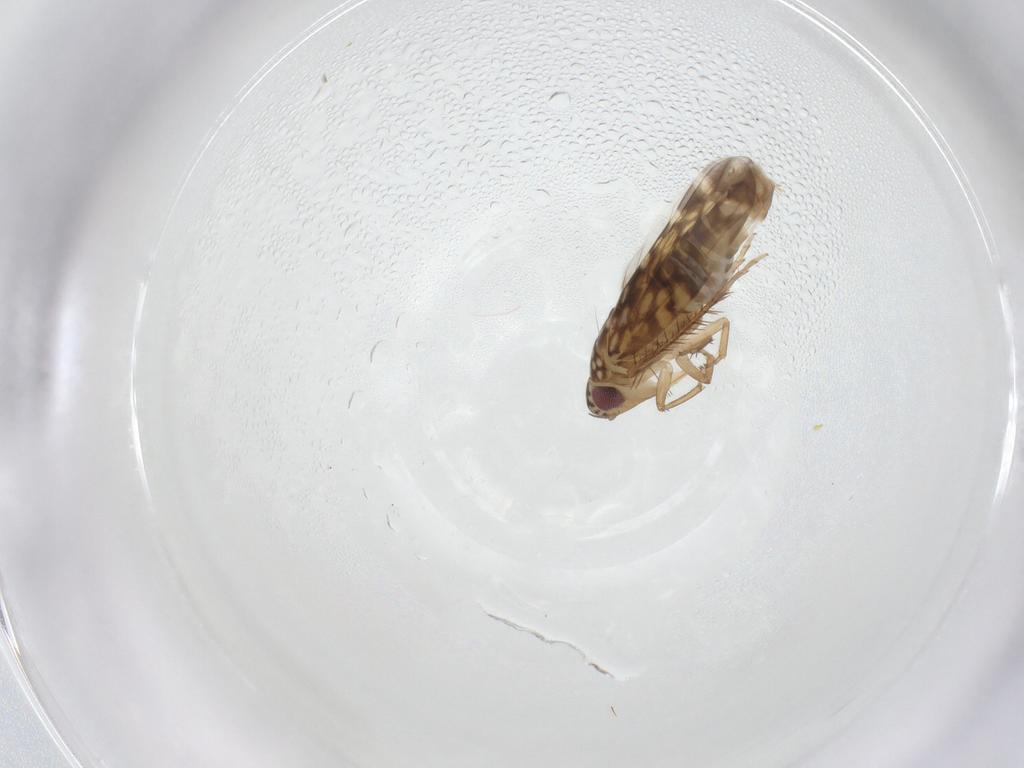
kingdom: Animalia
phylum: Arthropoda
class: Insecta
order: Hemiptera
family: Cicadellidae
